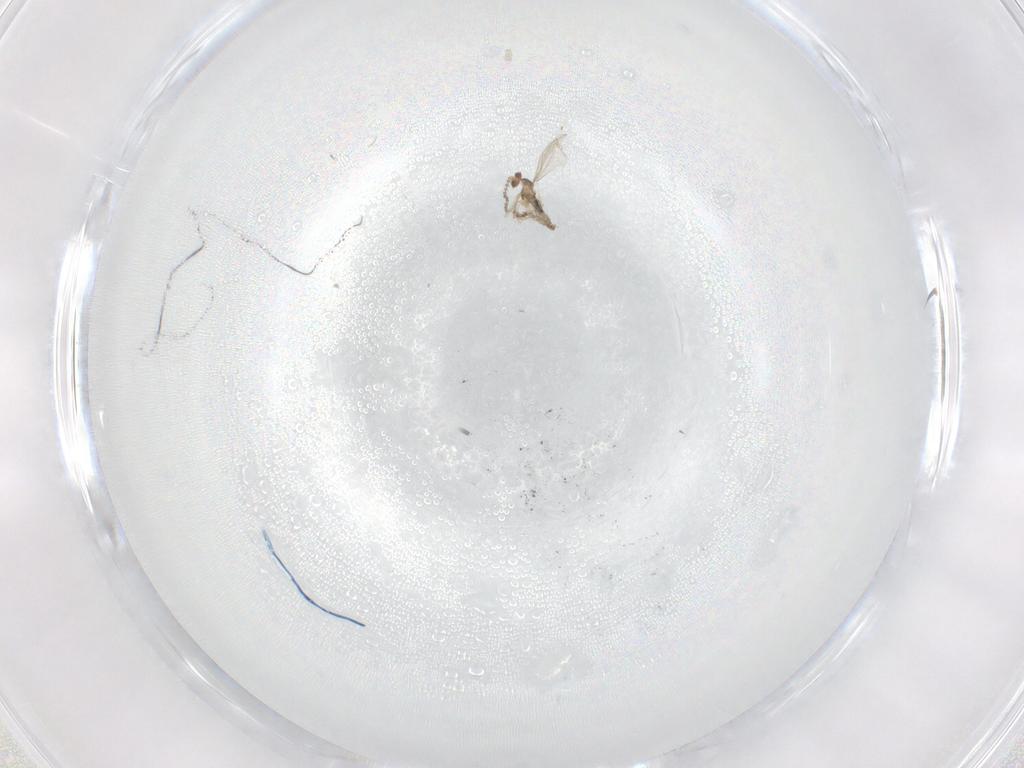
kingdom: Animalia
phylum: Arthropoda
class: Insecta
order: Diptera
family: Cecidomyiidae
